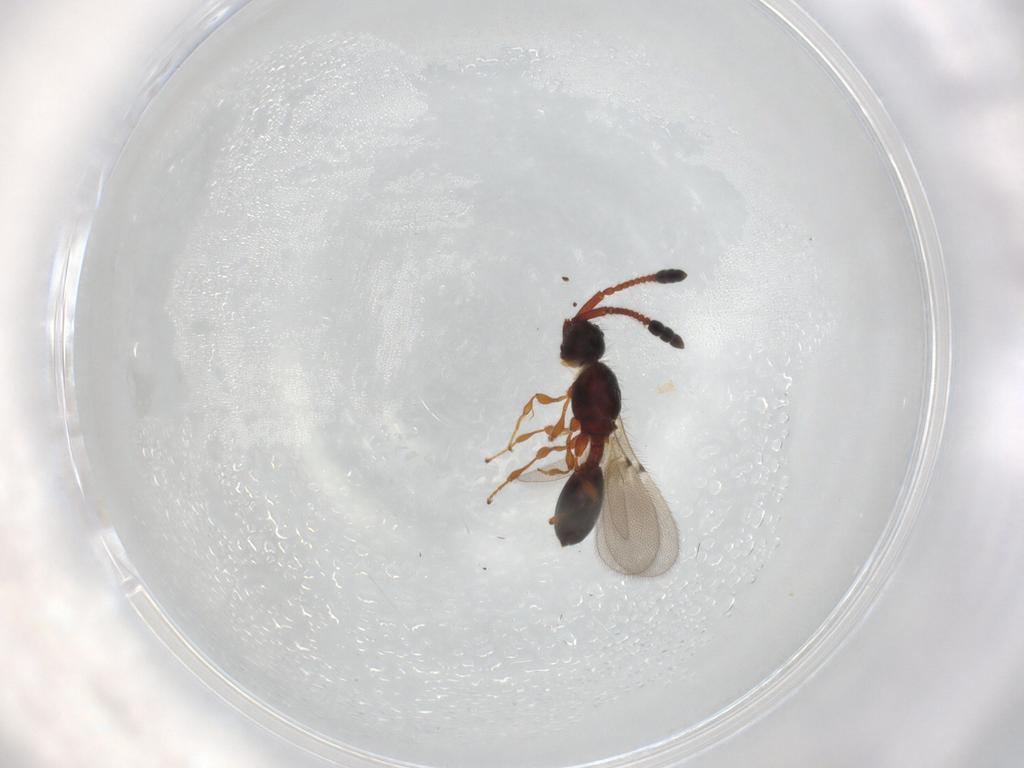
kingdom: Animalia
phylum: Arthropoda
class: Insecta
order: Hymenoptera
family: Diapriidae
